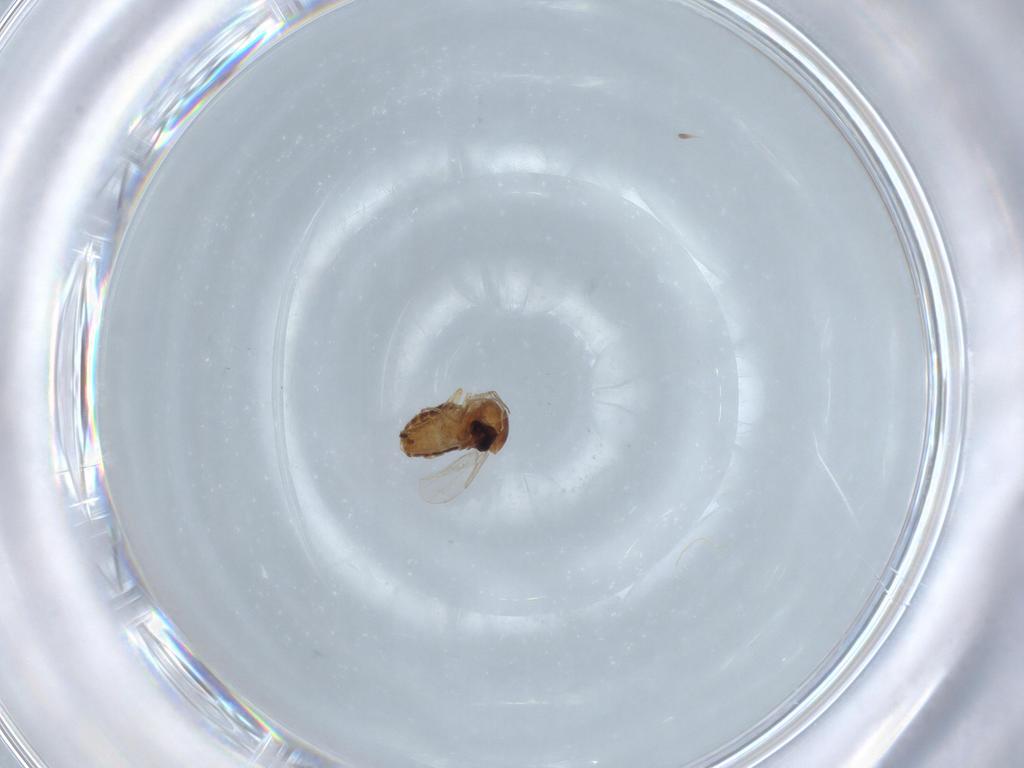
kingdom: Animalia
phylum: Arthropoda
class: Insecta
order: Diptera
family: Ceratopogonidae
